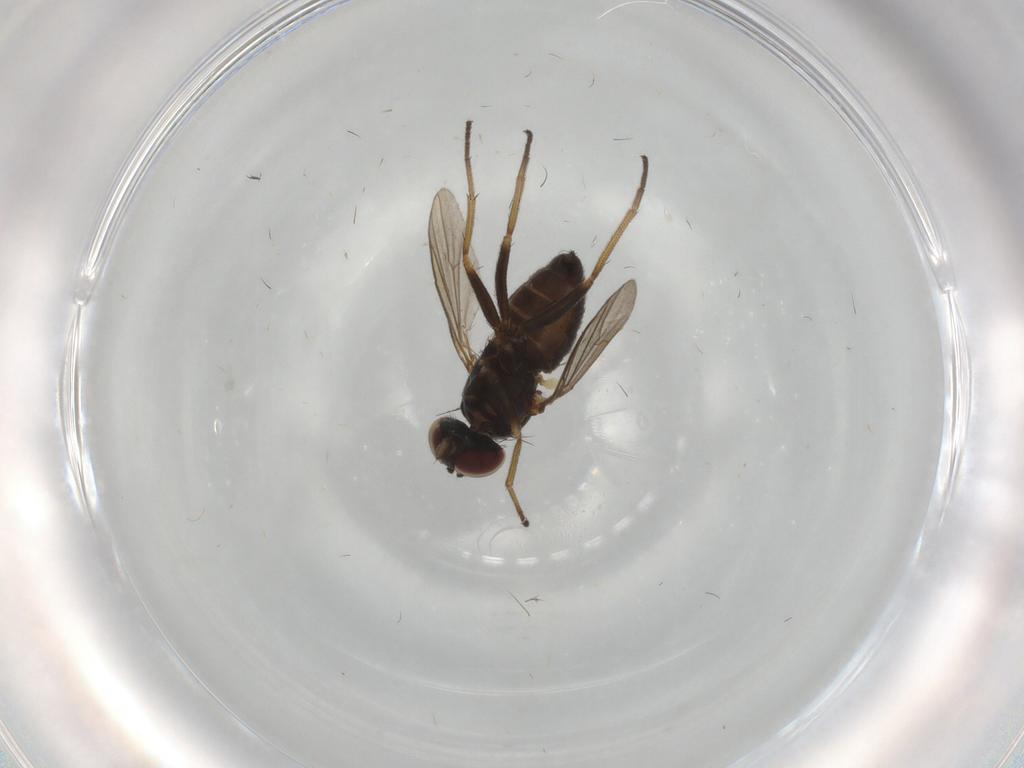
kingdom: Animalia
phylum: Arthropoda
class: Insecta
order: Diptera
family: Dolichopodidae
